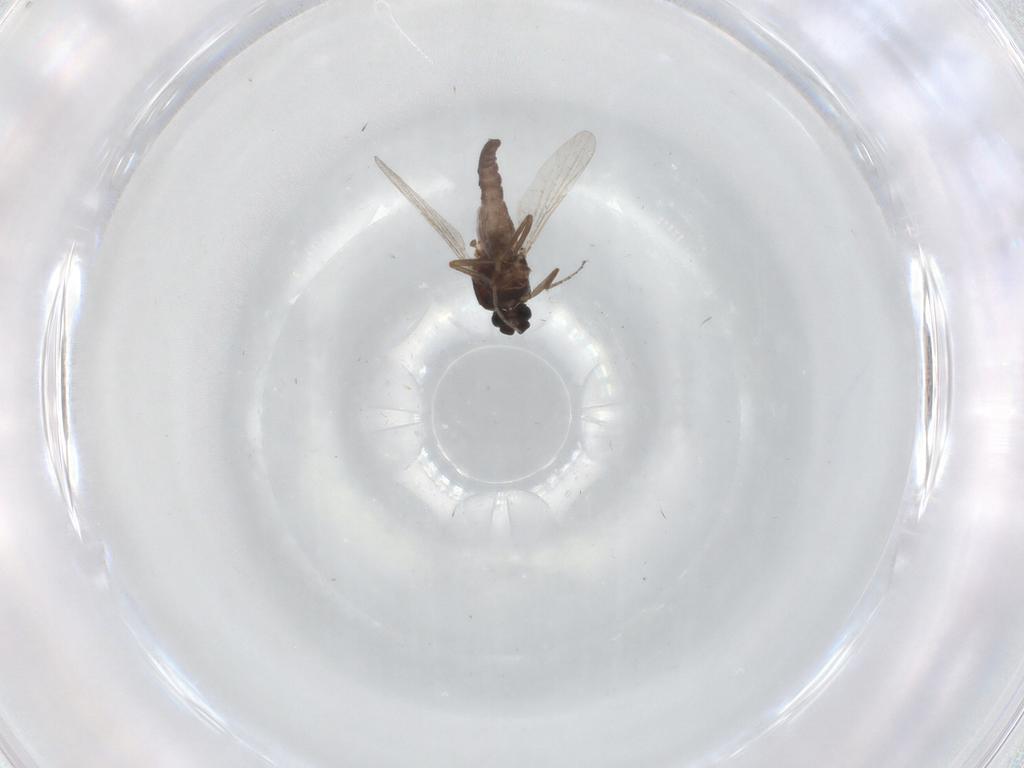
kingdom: Animalia
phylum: Arthropoda
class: Insecta
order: Diptera
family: Ceratopogonidae
